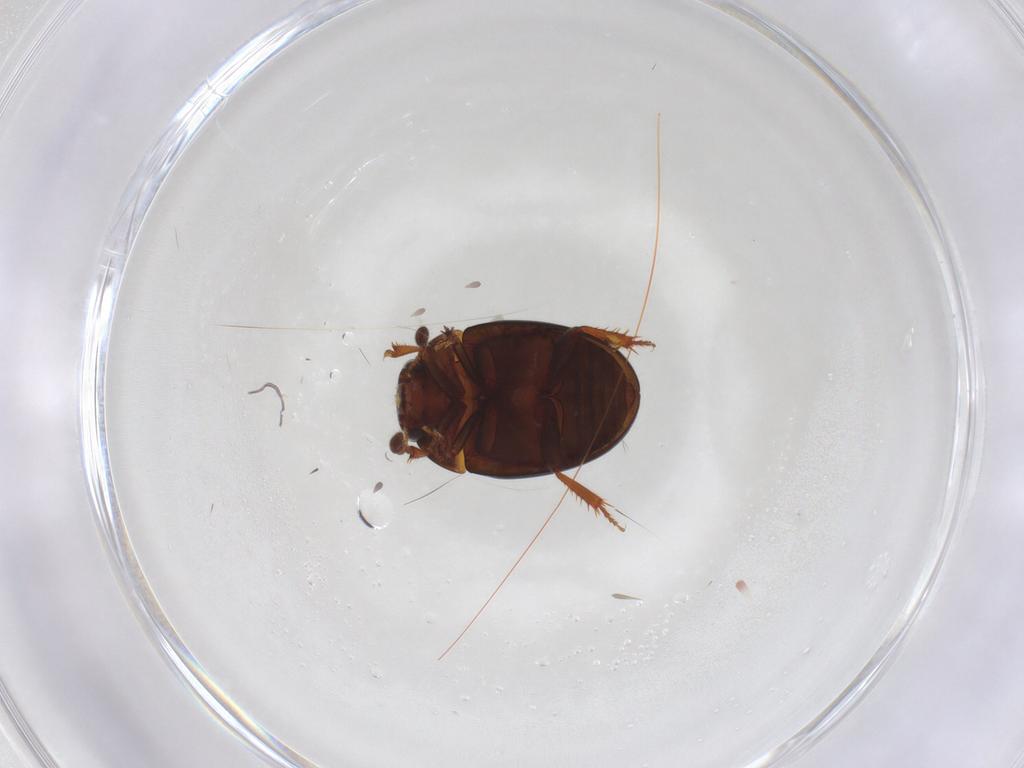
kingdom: Animalia
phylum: Arthropoda
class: Insecta
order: Coleoptera
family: Leiodidae
